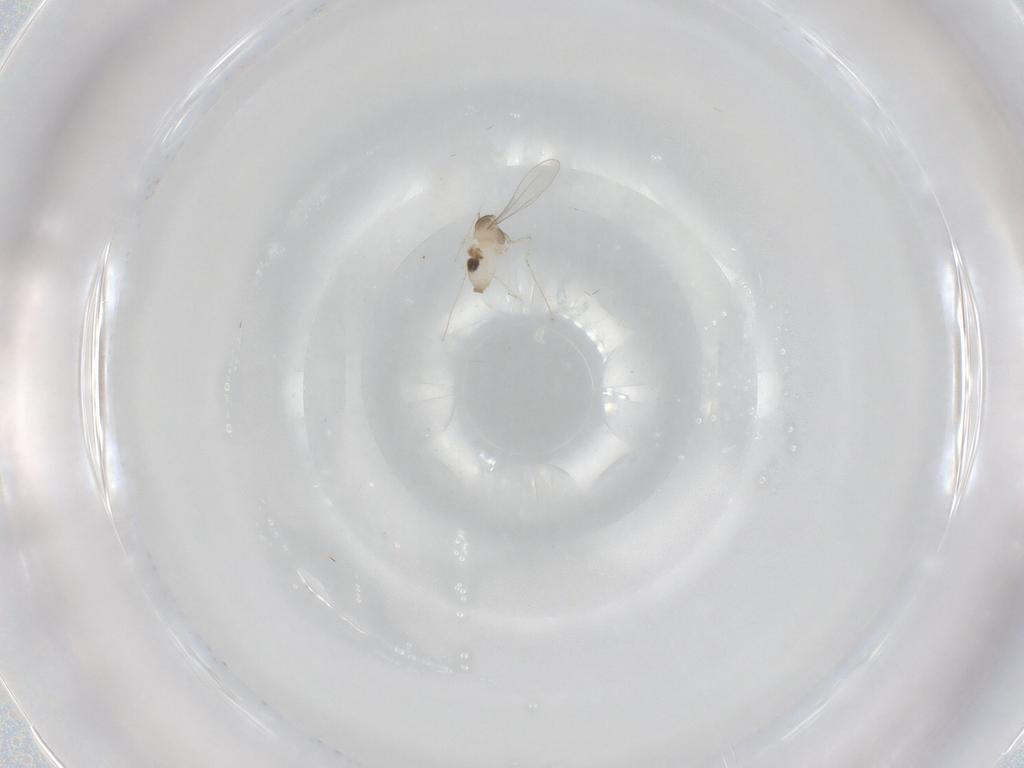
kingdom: Animalia
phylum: Arthropoda
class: Insecta
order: Diptera
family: Cecidomyiidae
